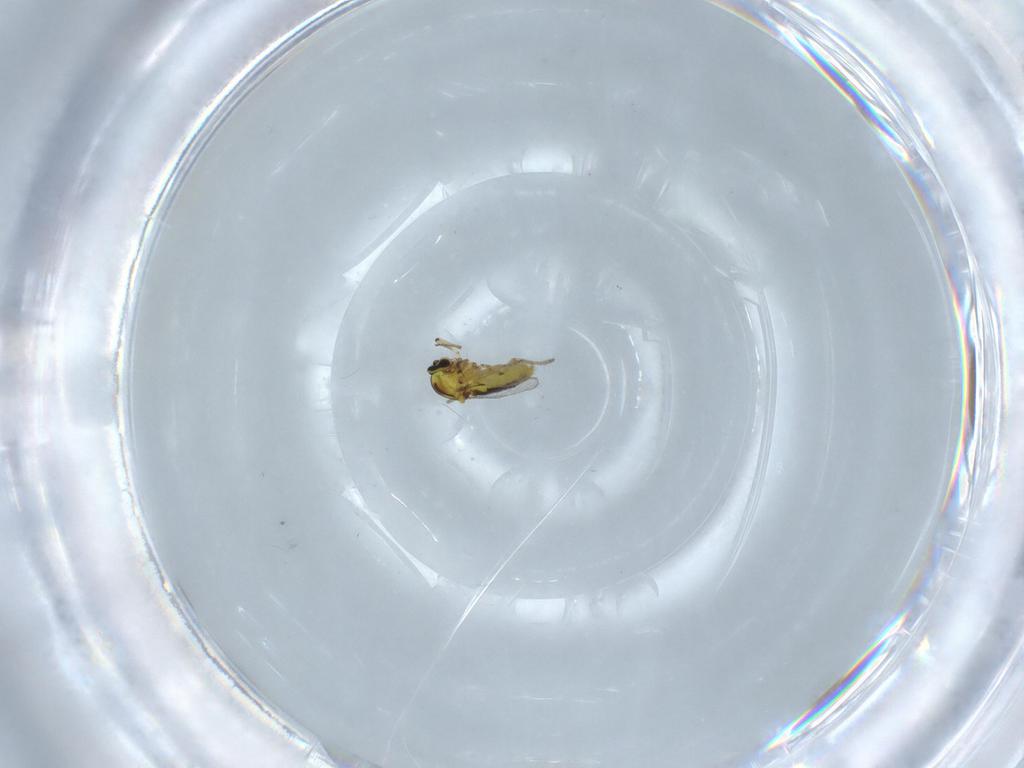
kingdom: Animalia
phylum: Arthropoda
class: Insecta
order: Diptera
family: Ceratopogonidae
